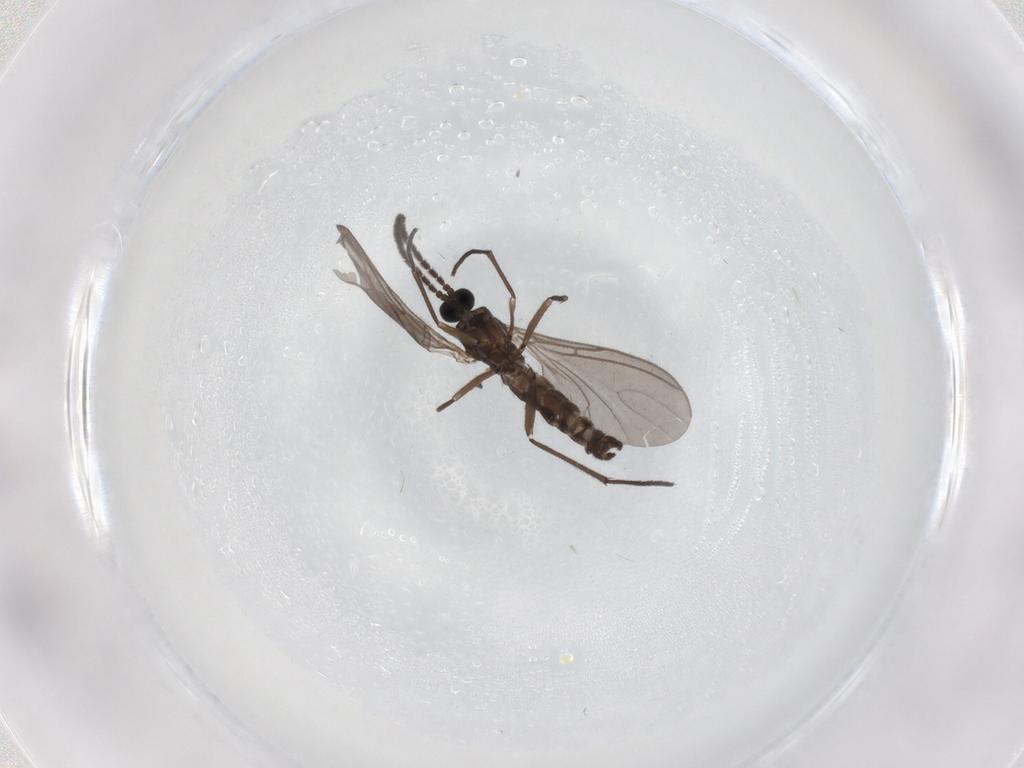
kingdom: Animalia
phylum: Arthropoda
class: Insecta
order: Diptera
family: Sciaridae
